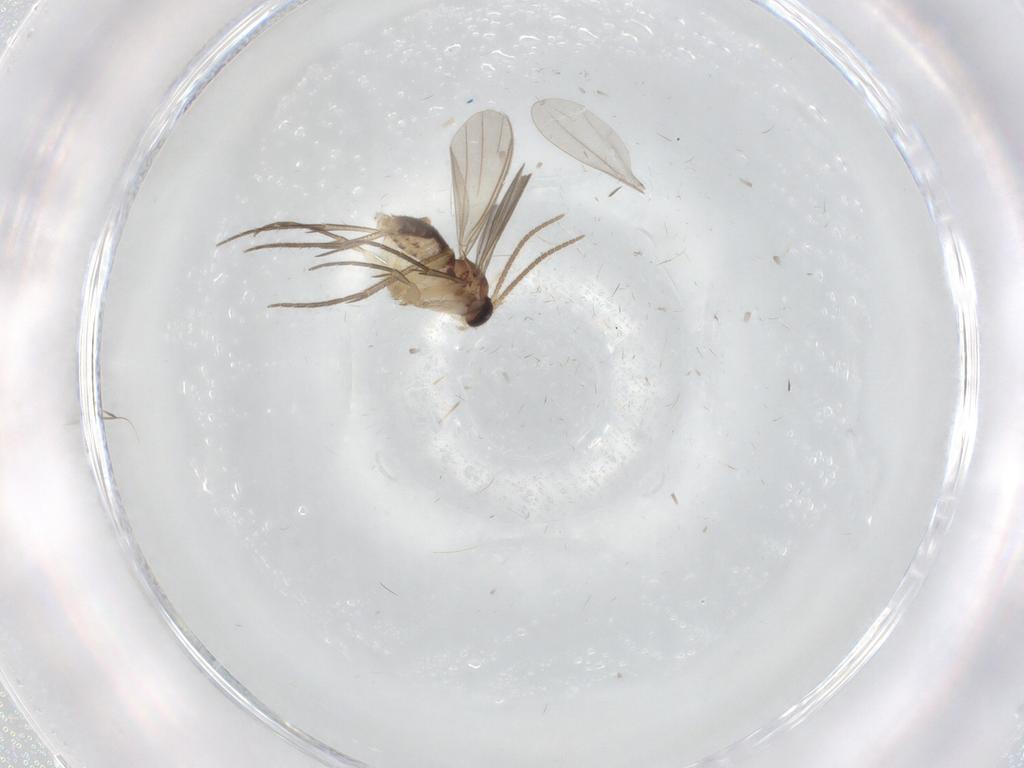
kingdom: Animalia
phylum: Arthropoda
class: Insecta
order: Diptera
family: Mycetophilidae
